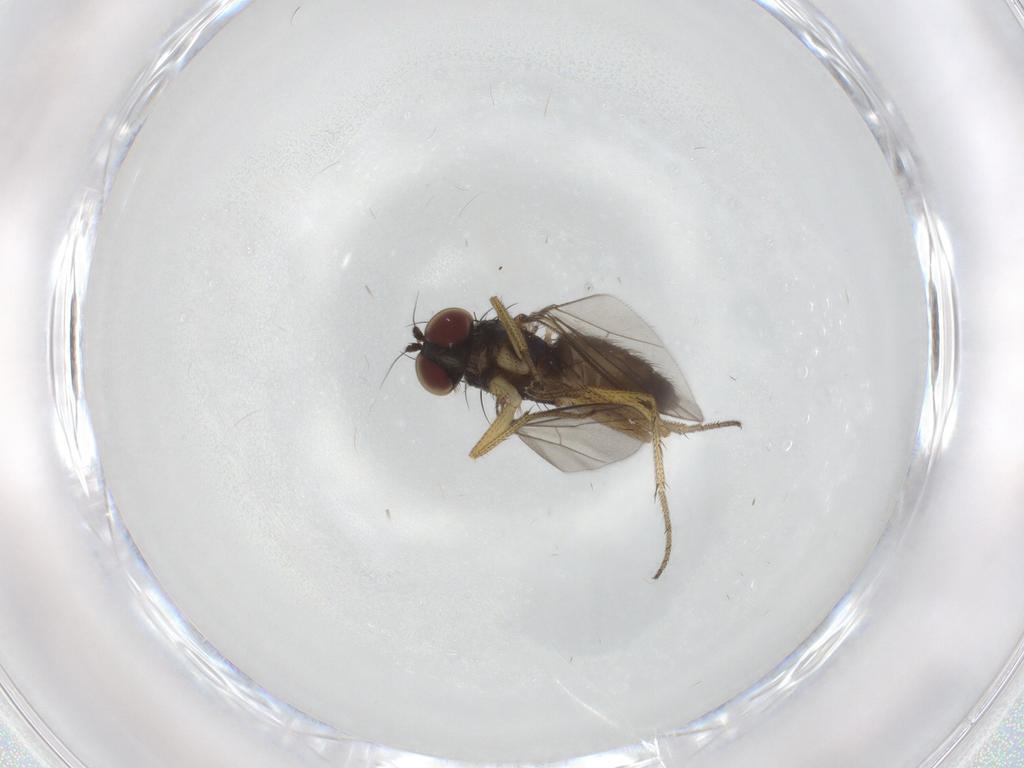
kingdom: Animalia
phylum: Arthropoda
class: Insecta
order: Diptera
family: Dolichopodidae
